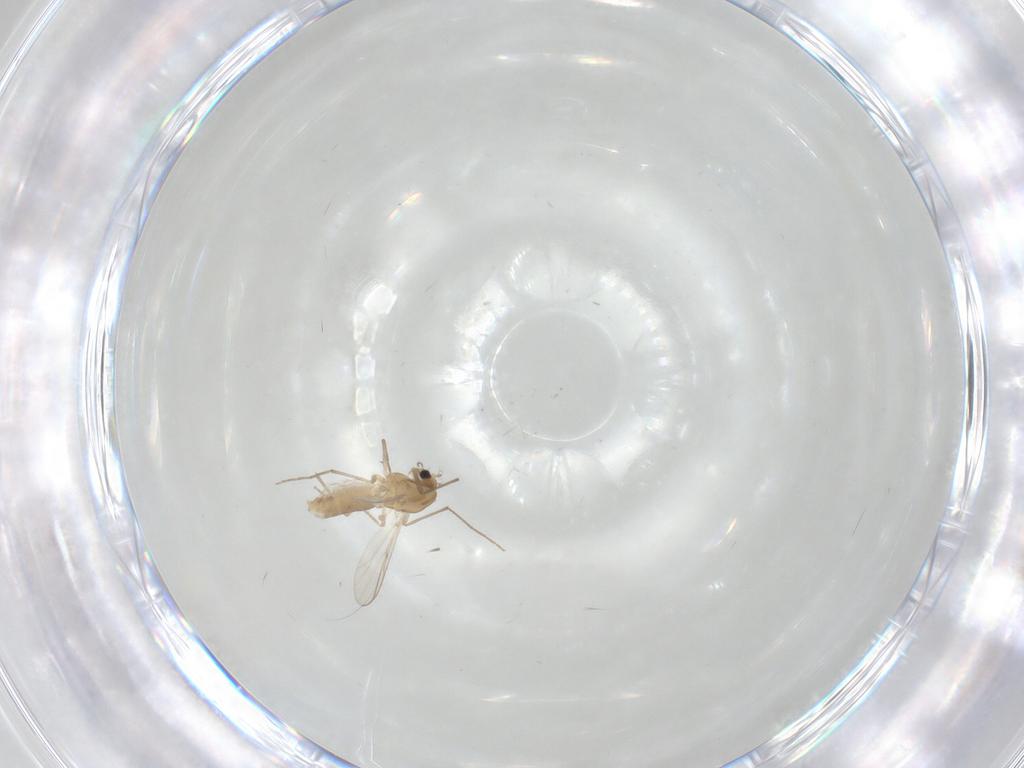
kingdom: Animalia
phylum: Arthropoda
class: Insecta
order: Diptera
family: Chironomidae
